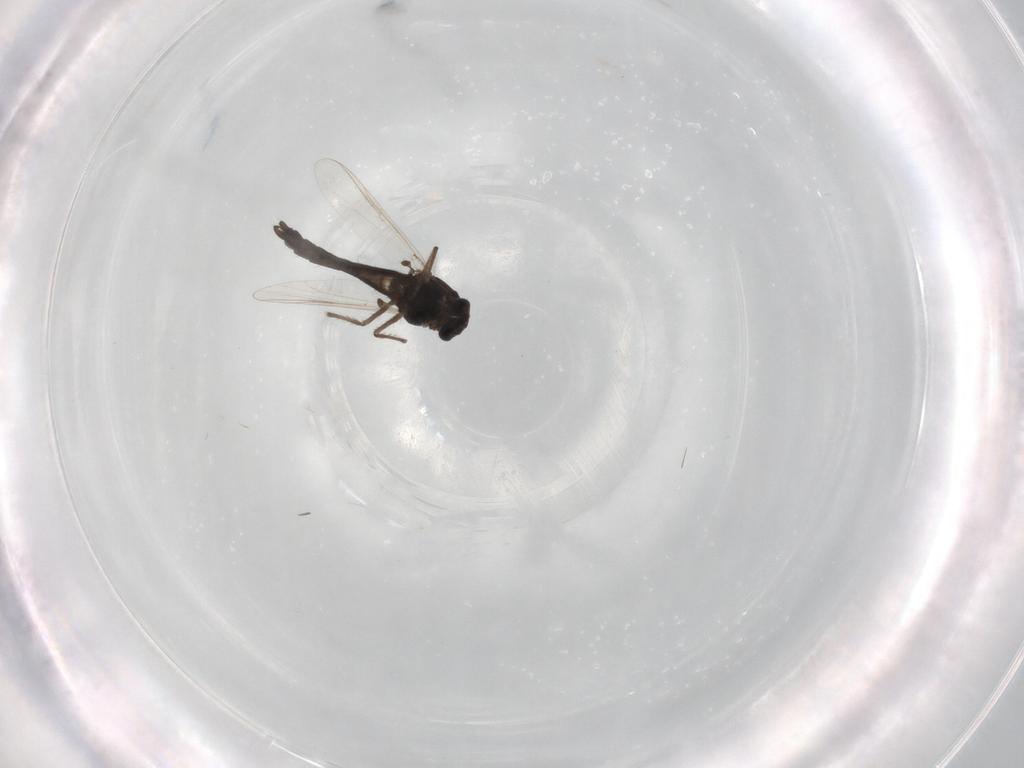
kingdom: Animalia
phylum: Arthropoda
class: Insecta
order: Diptera
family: Chironomidae
